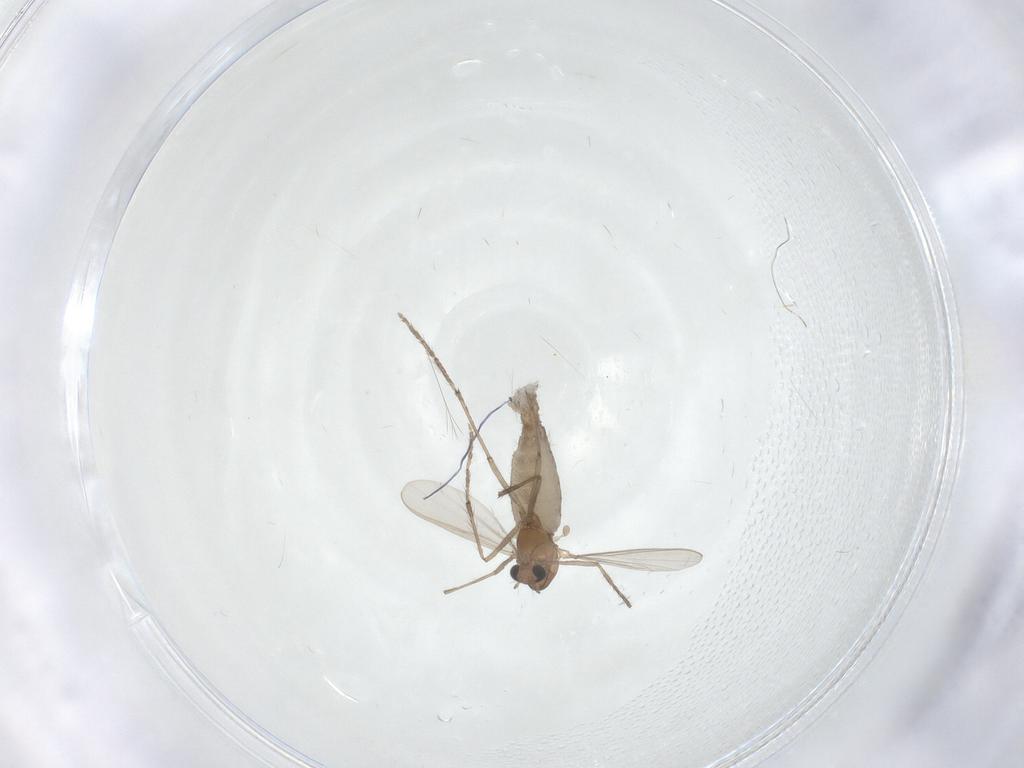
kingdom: Animalia
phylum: Arthropoda
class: Insecta
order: Diptera
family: Chironomidae
